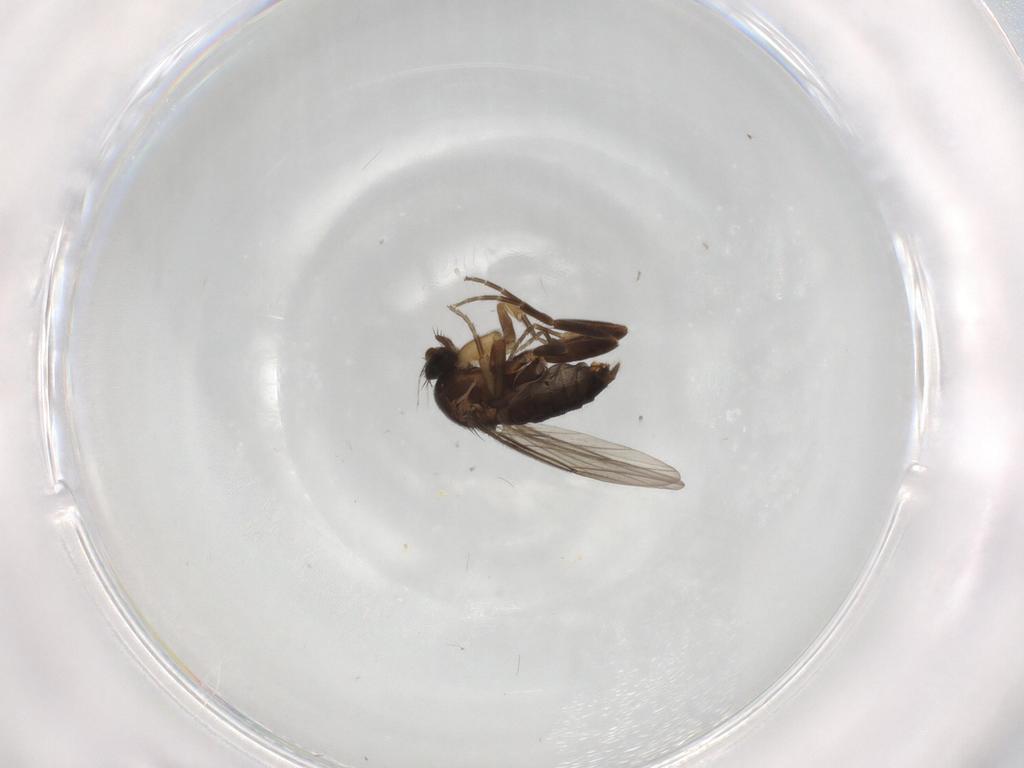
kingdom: Animalia
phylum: Arthropoda
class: Insecta
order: Diptera
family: Phoridae
